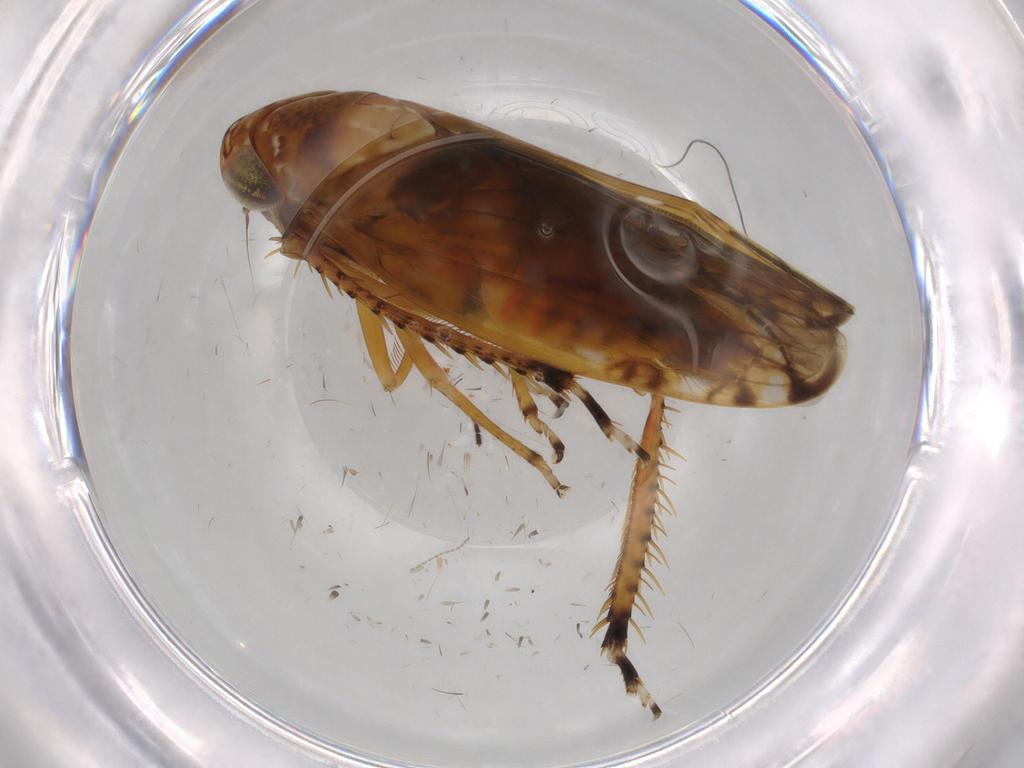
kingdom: Animalia
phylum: Arthropoda
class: Insecta
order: Hemiptera
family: Cicadellidae
